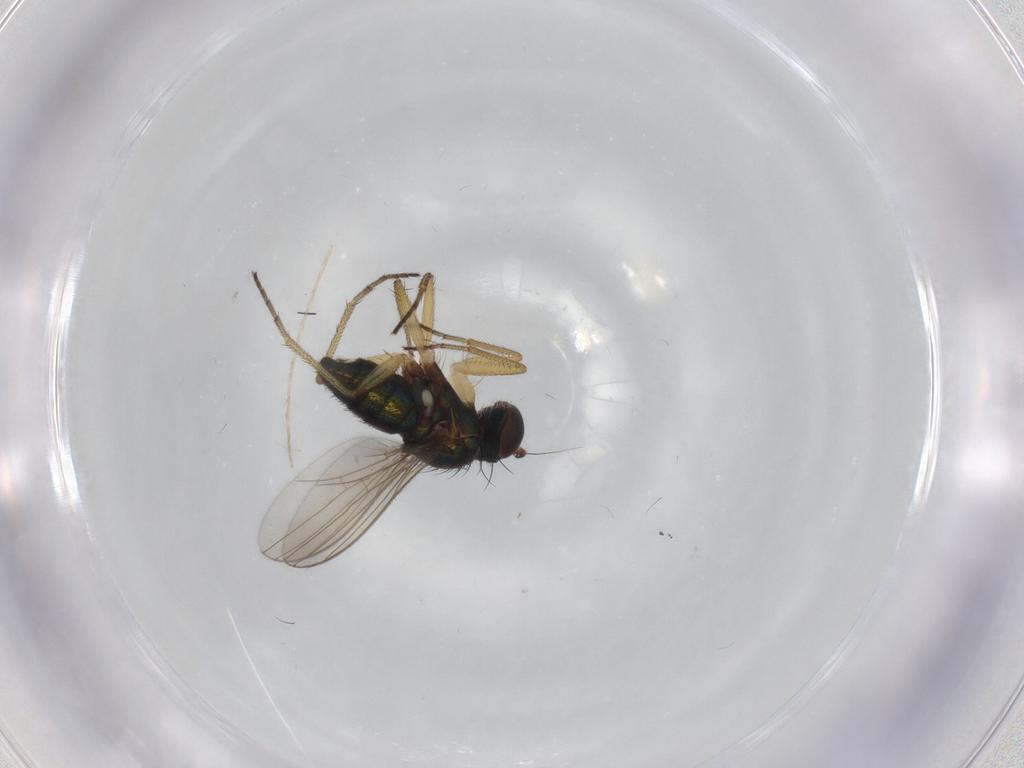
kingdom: Animalia
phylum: Arthropoda
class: Insecta
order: Diptera
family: Dolichopodidae
